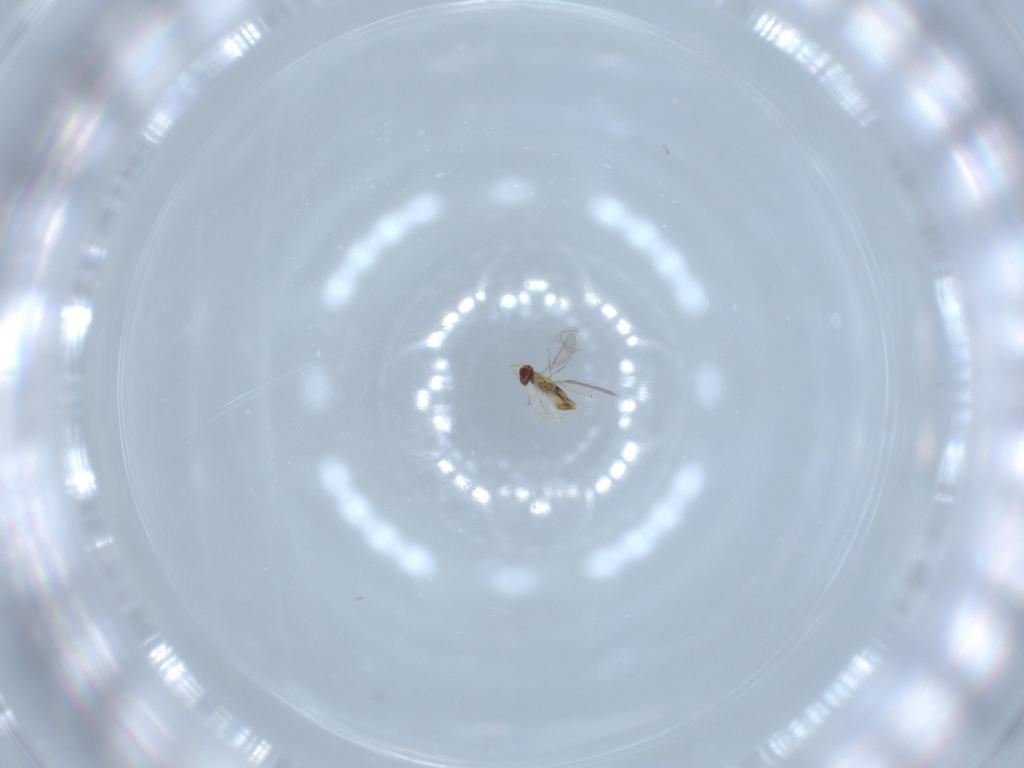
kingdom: Animalia
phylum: Arthropoda
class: Insecta
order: Hymenoptera
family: Aphelinidae
